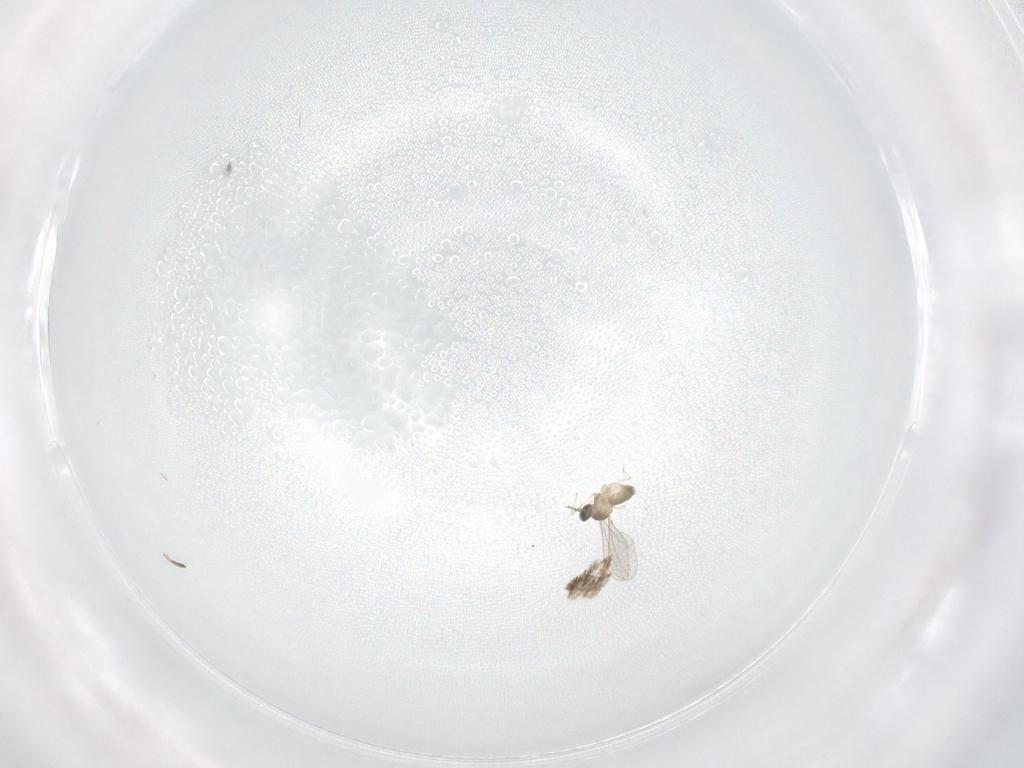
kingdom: Animalia
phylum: Arthropoda
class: Insecta
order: Diptera
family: Cecidomyiidae
